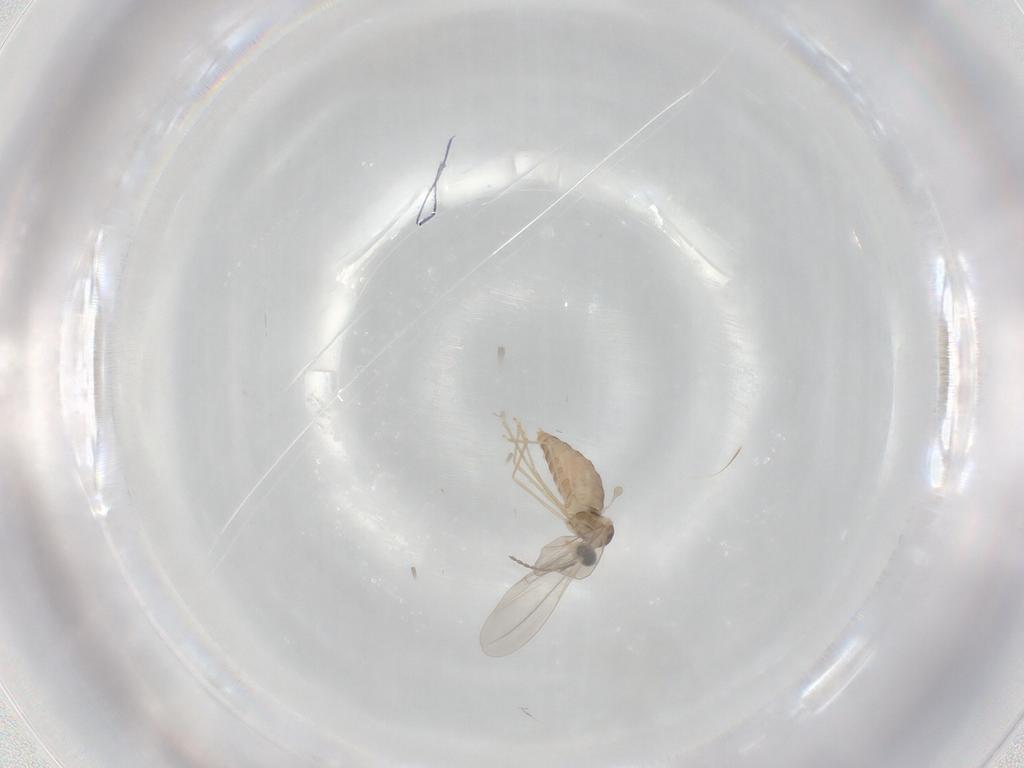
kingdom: Animalia
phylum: Arthropoda
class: Insecta
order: Diptera
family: Cecidomyiidae
